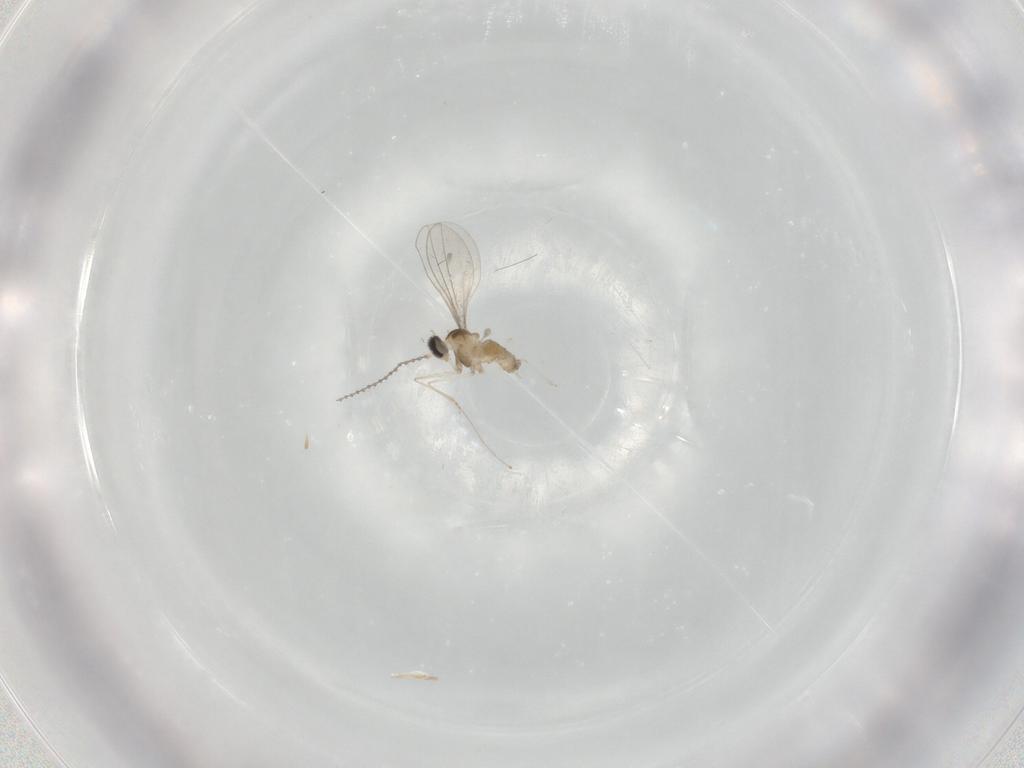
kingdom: Animalia
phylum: Arthropoda
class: Insecta
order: Diptera
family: Cecidomyiidae
